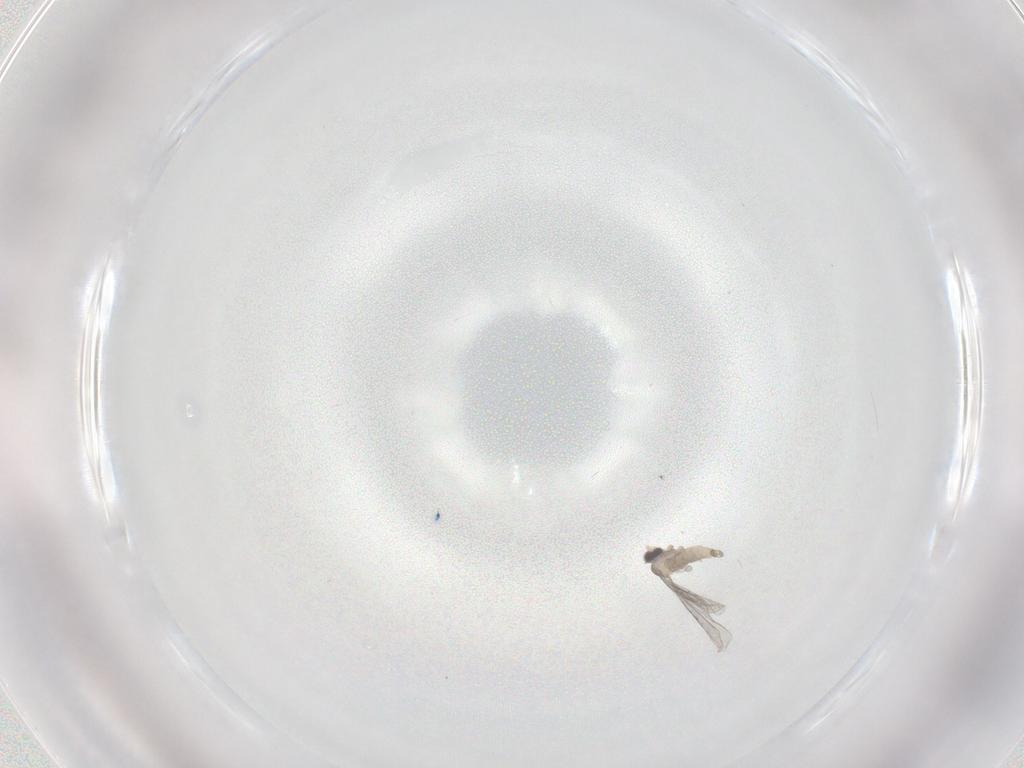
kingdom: Animalia
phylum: Arthropoda
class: Insecta
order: Diptera
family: Cecidomyiidae
